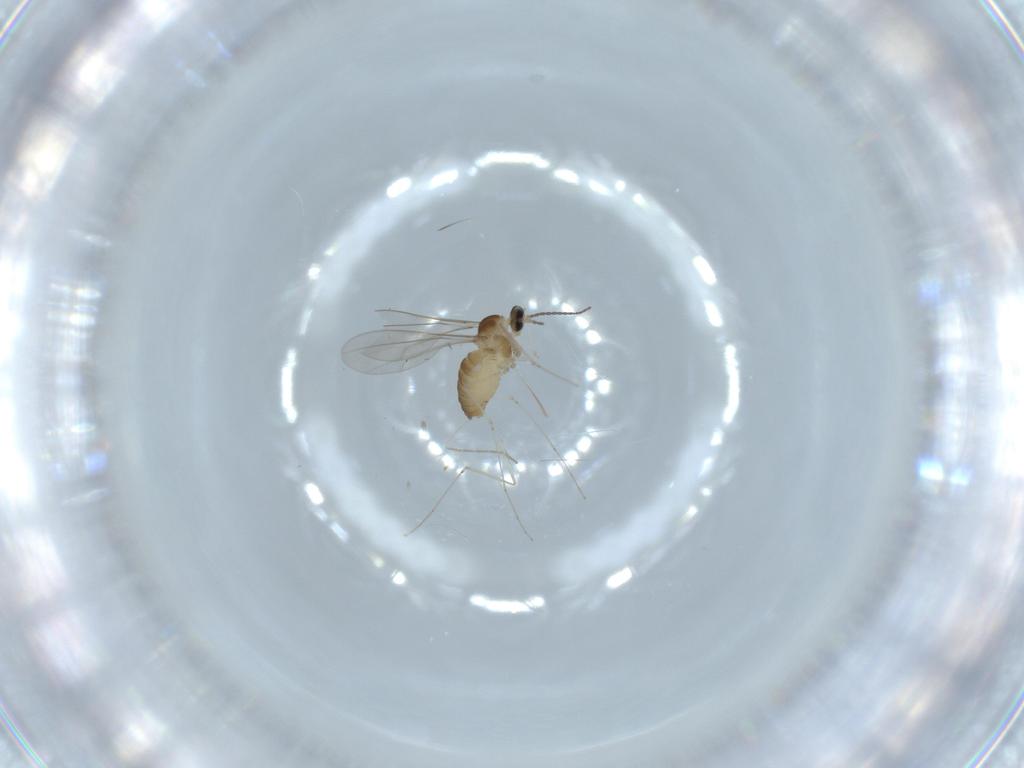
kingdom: Animalia
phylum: Arthropoda
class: Insecta
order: Diptera
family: Cecidomyiidae
